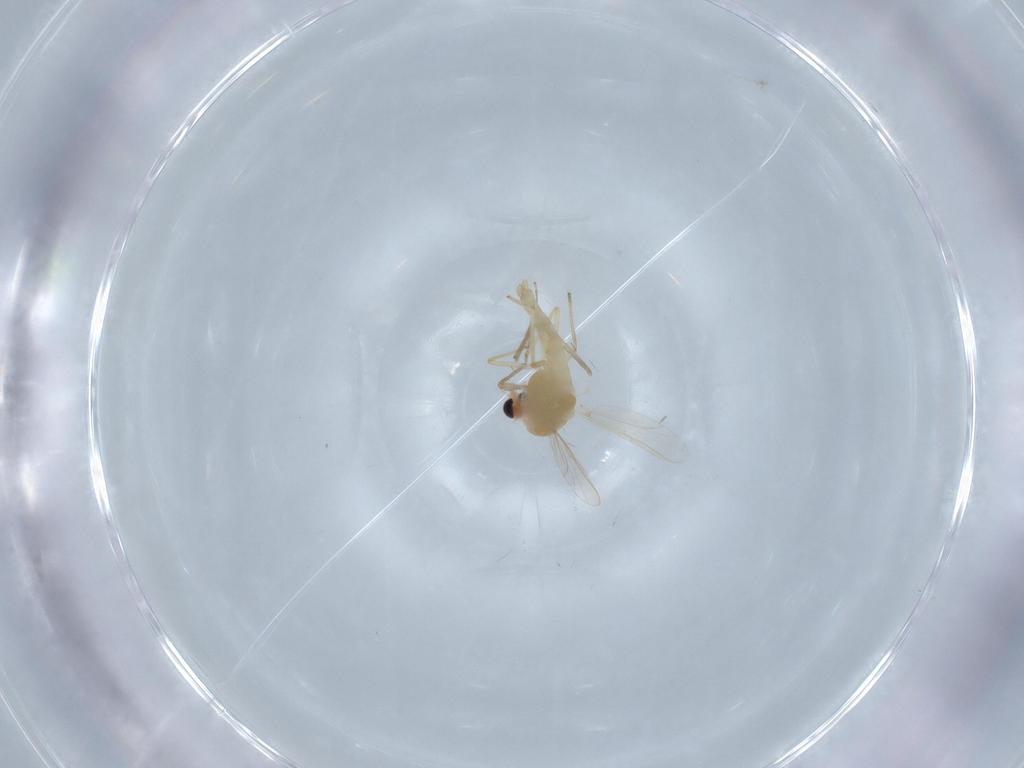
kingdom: Animalia
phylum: Arthropoda
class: Insecta
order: Diptera
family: Chironomidae
